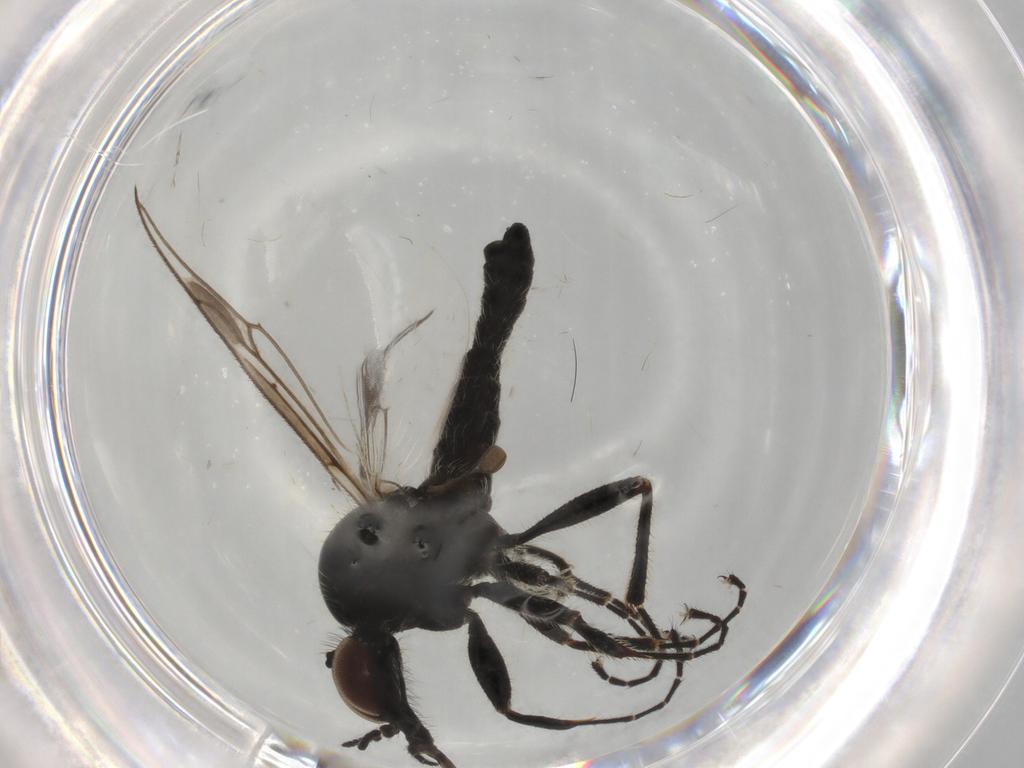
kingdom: Animalia
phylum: Arthropoda
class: Insecta
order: Diptera
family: Bibionidae
